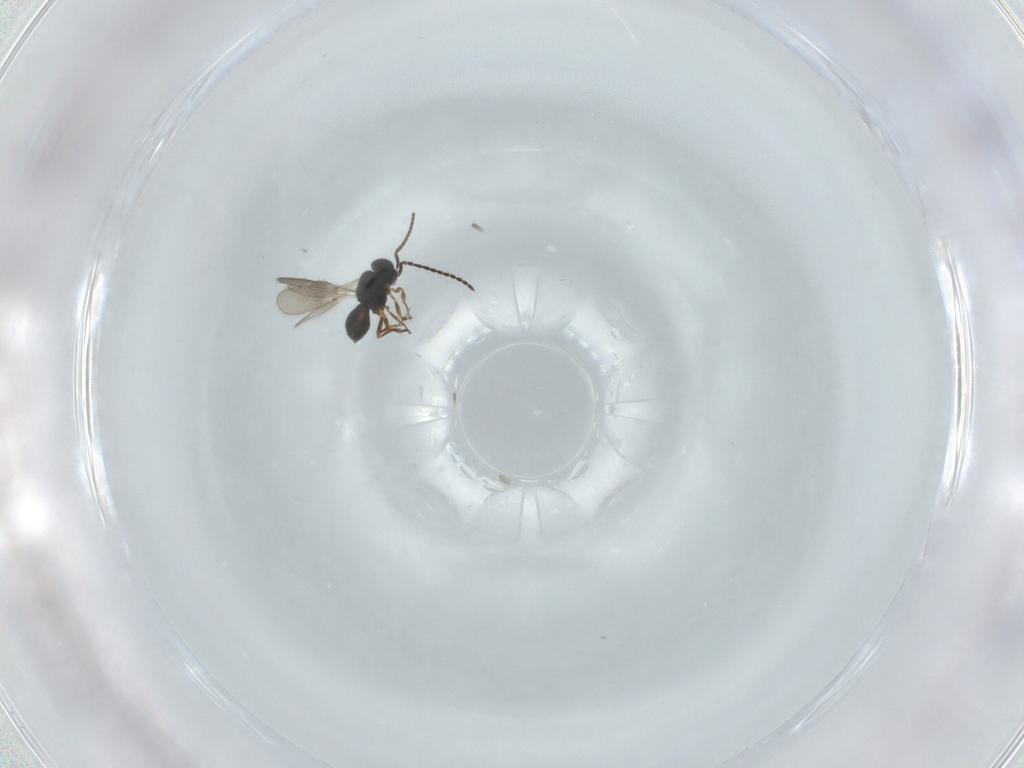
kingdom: Animalia
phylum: Arthropoda
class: Insecta
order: Hymenoptera
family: Scelionidae
